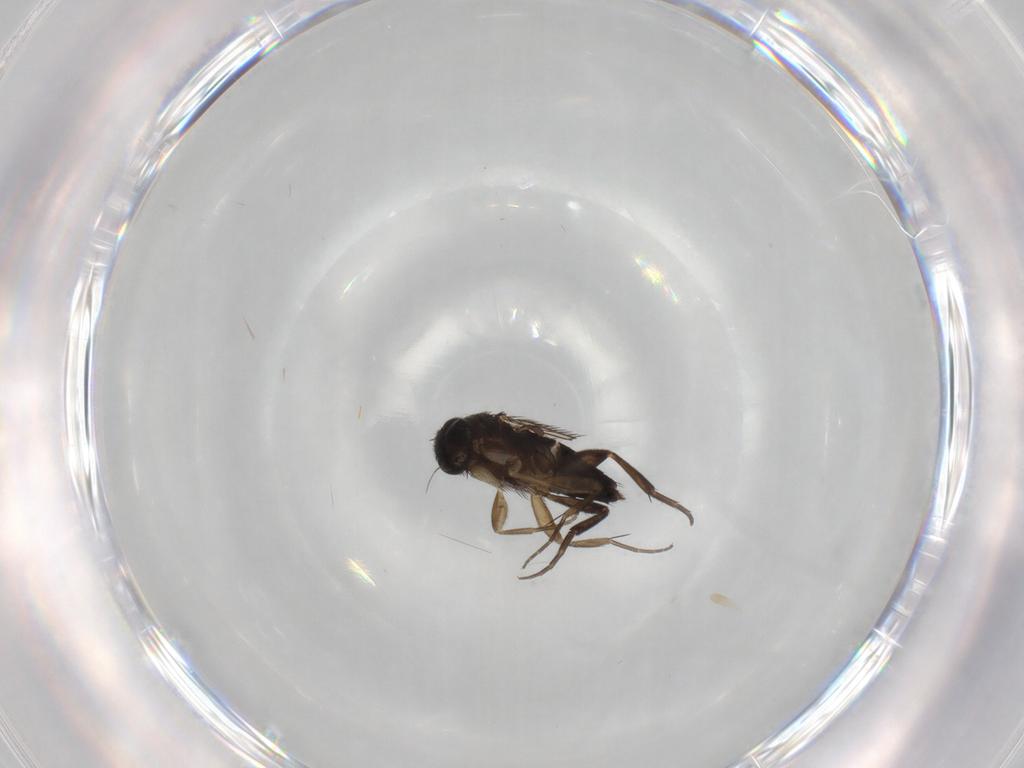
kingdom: Animalia
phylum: Arthropoda
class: Insecta
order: Diptera
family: Phoridae
